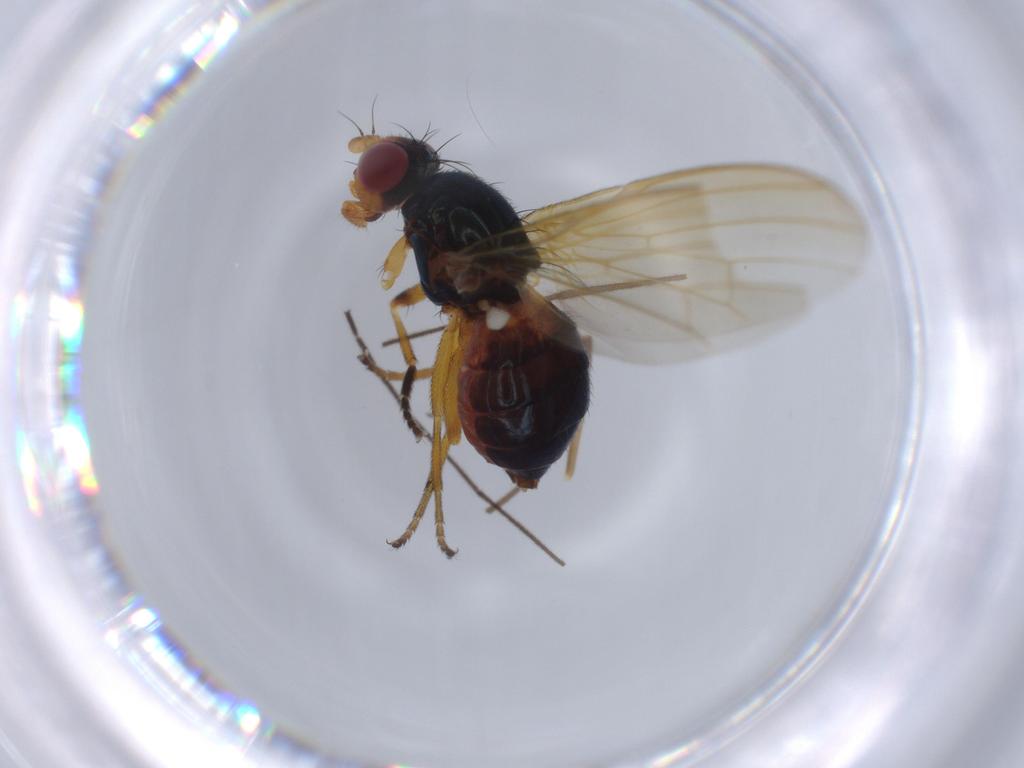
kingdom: Animalia
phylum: Arthropoda
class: Insecta
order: Diptera
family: Limoniidae
